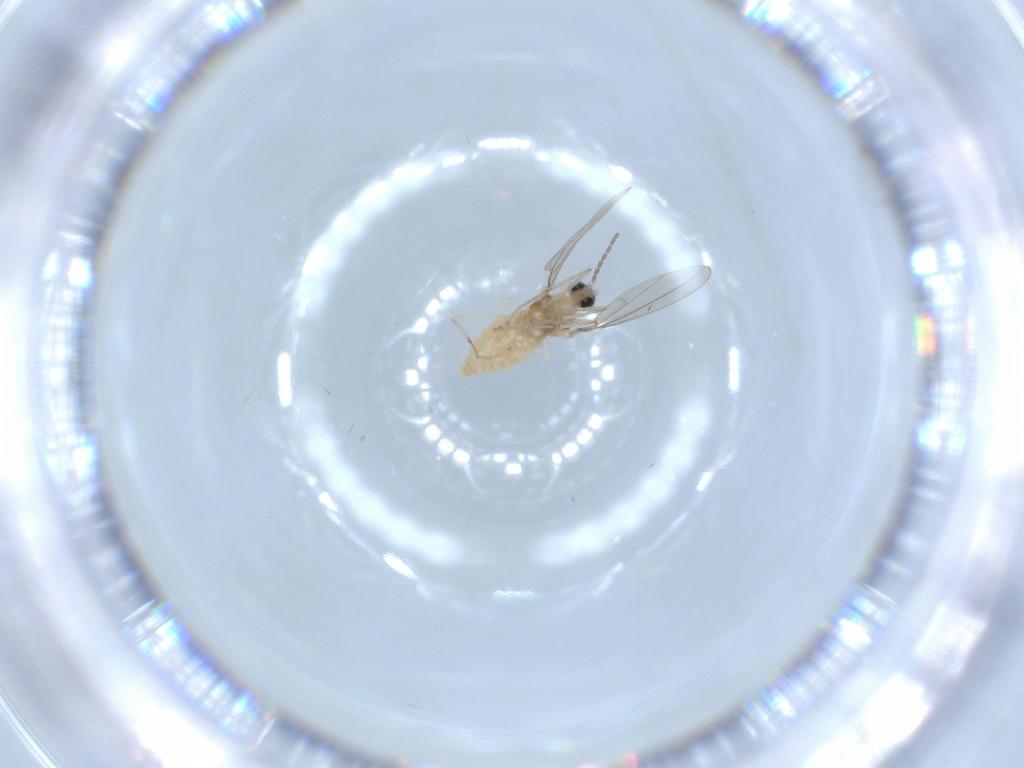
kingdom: Animalia
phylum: Arthropoda
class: Insecta
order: Diptera
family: Cecidomyiidae
